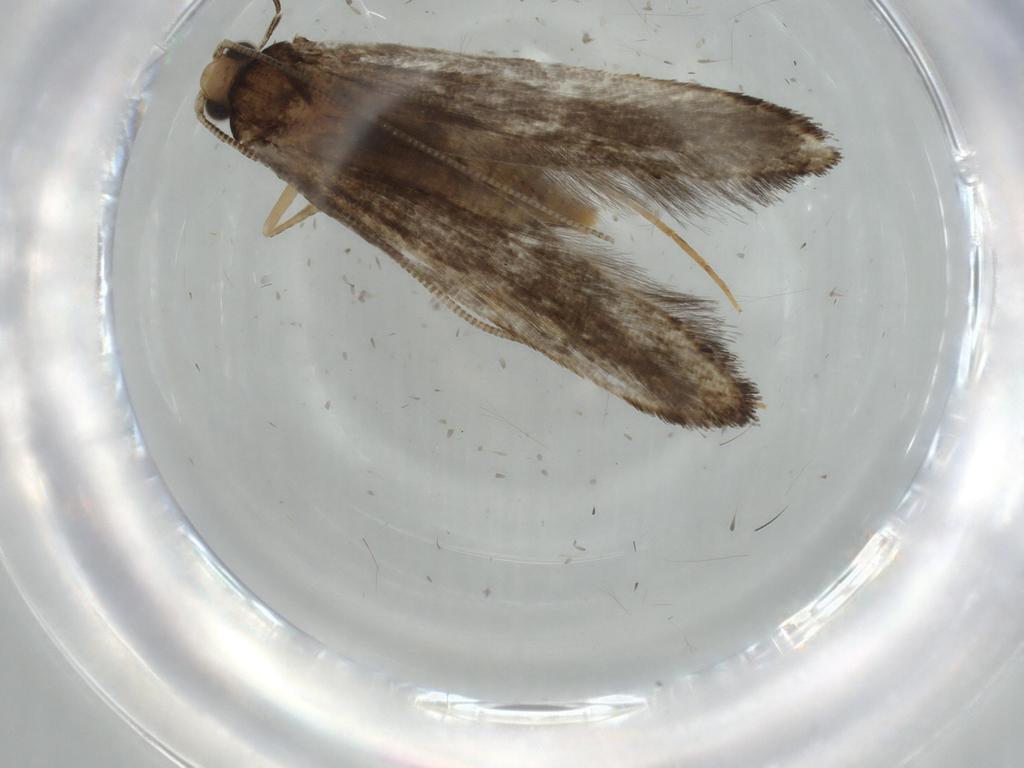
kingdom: Animalia
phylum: Arthropoda
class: Insecta
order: Lepidoptera
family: Tineidae
